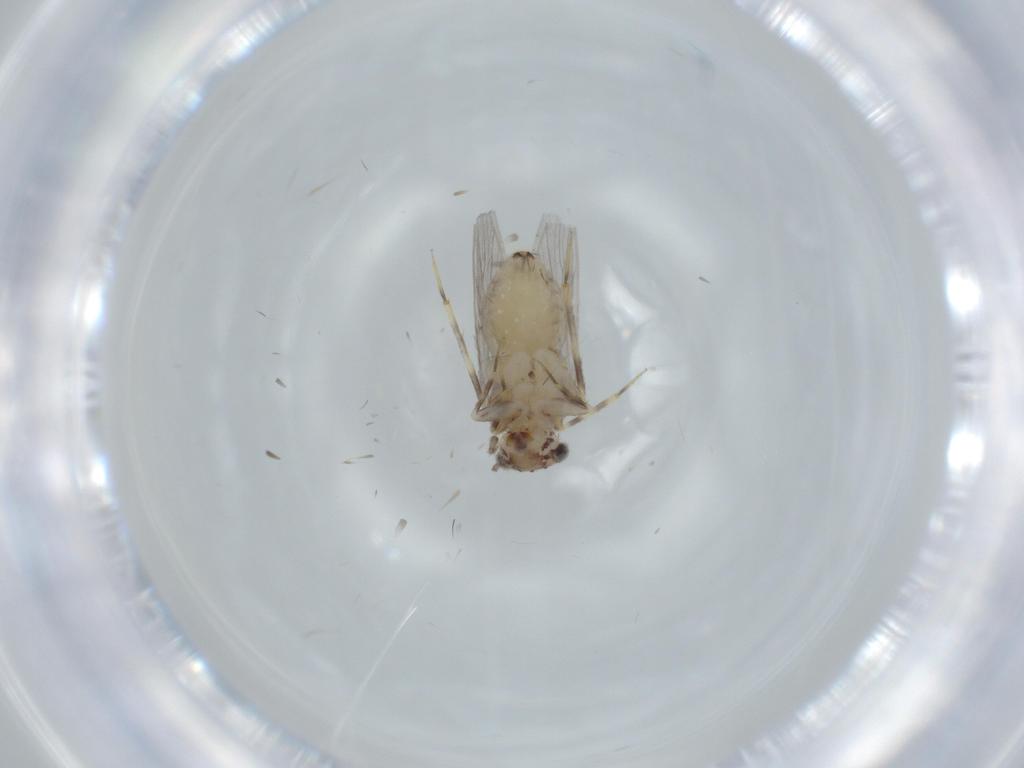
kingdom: Animalia
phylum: Arthropoda
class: Insecta
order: Psocodea
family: Lepidopsocidae
